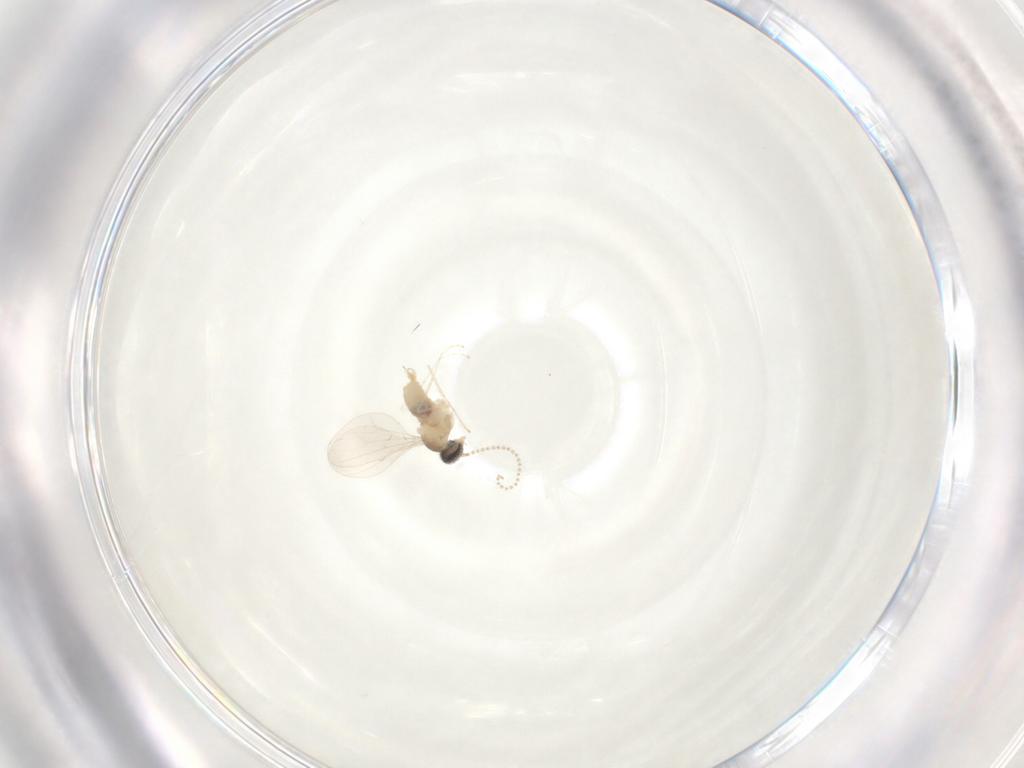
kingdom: Animalia
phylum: Arthropoda
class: Insecta
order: Diptera
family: Cecidomyiidae
